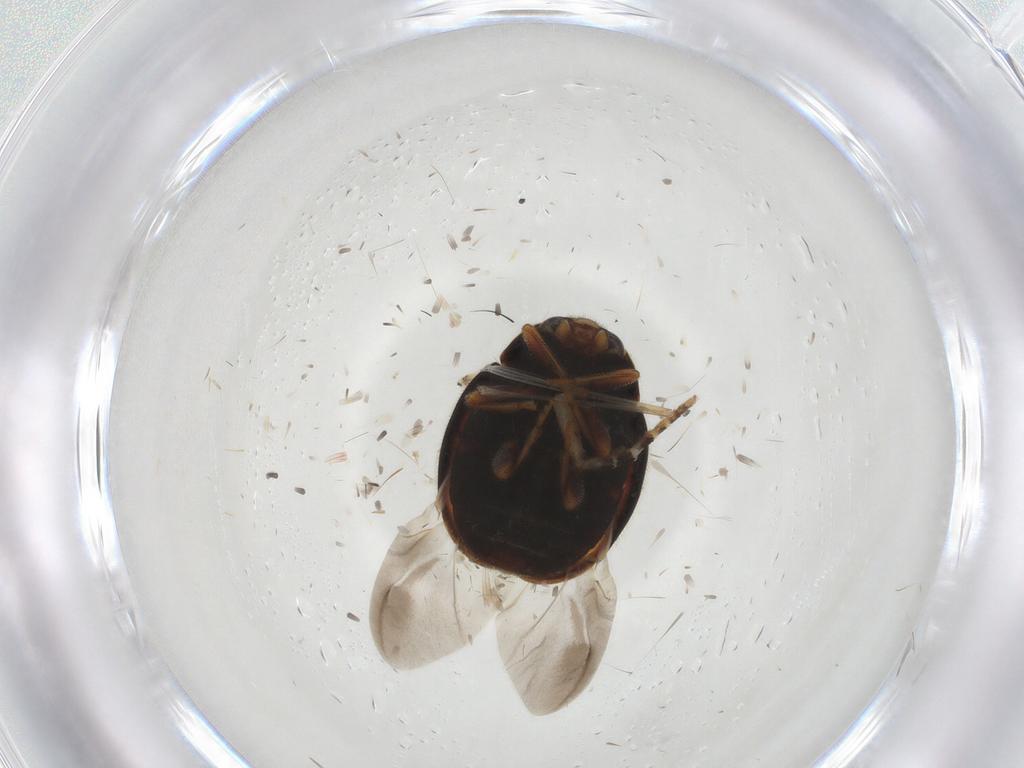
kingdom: Animalia
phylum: Arthropoda
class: Insecta
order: Coleoptera
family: Coccinellidae
